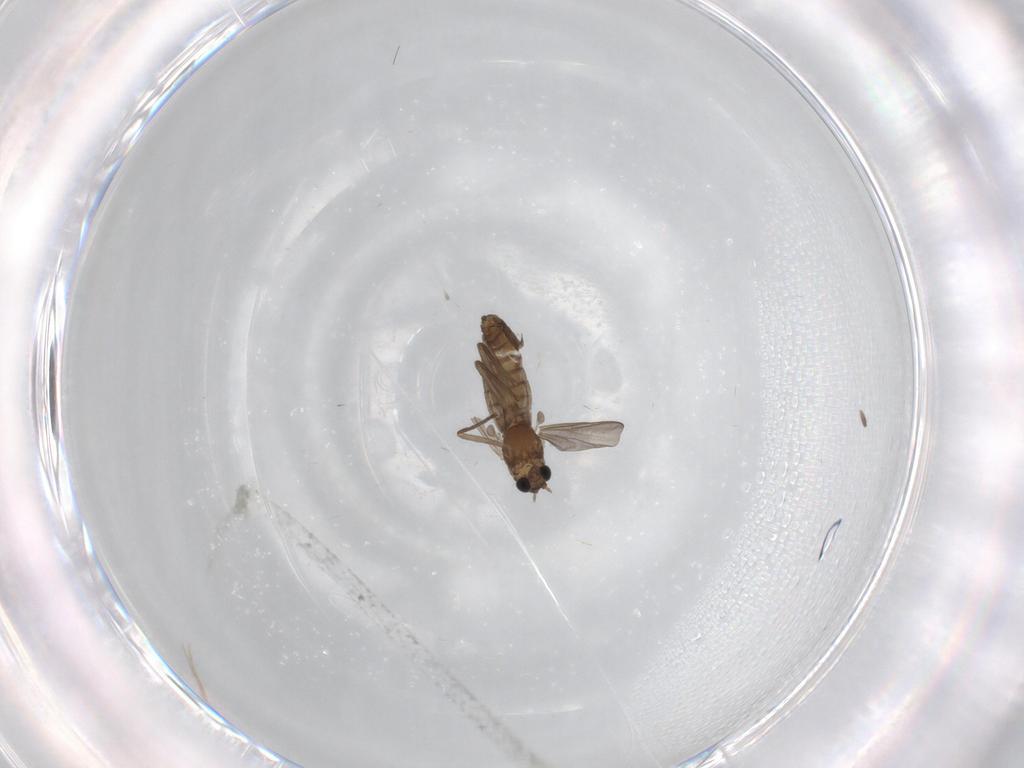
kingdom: Animalia
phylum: Arthropoda
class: Insecta
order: Diptera
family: Chironomidae
